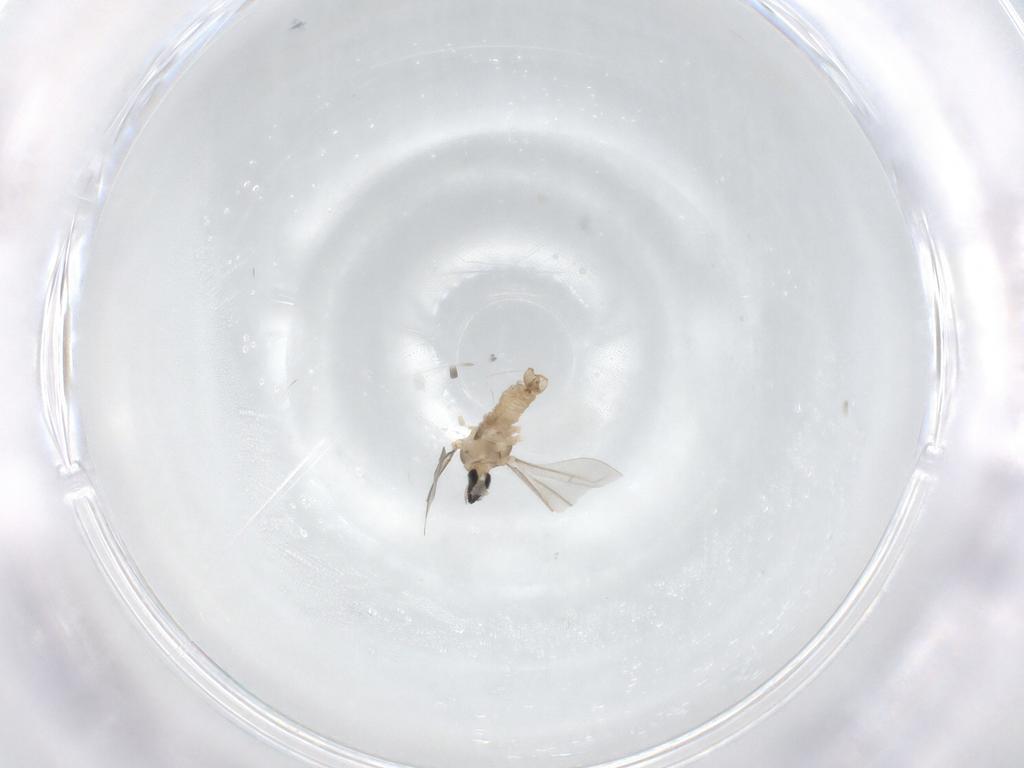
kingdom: Animalia
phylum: Arthropoda
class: Insecta
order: Diptera
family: Cecidomyiidae
